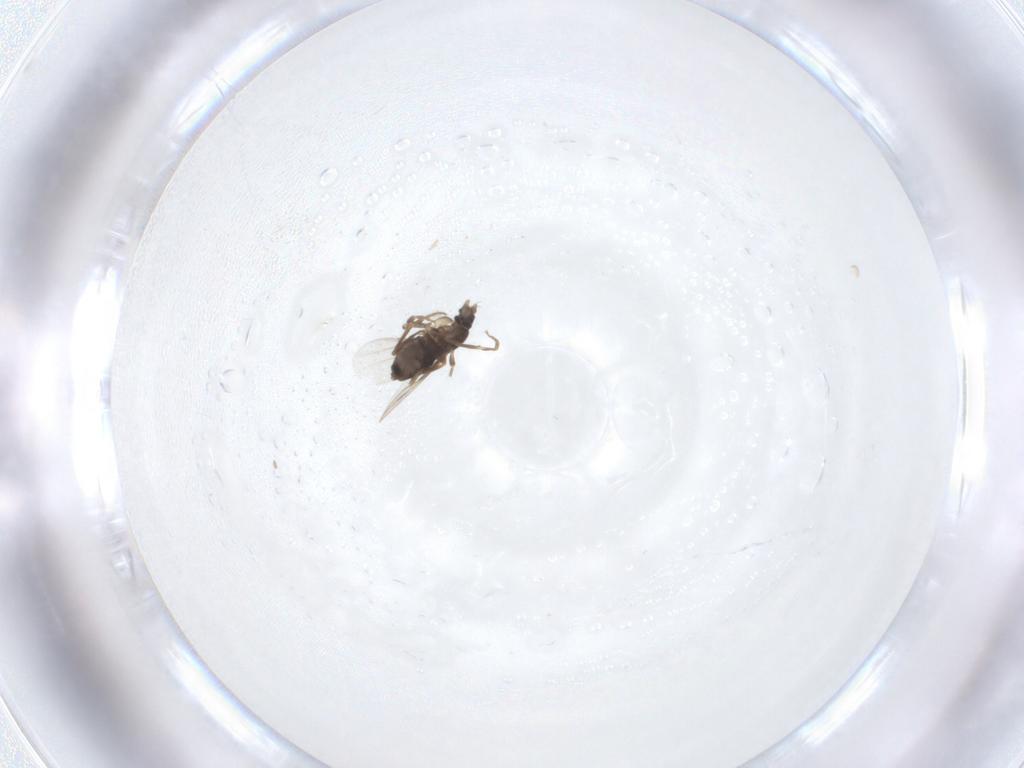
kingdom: Animalia
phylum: Arthropoda
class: Insecta
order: Diptera
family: Phoridae
